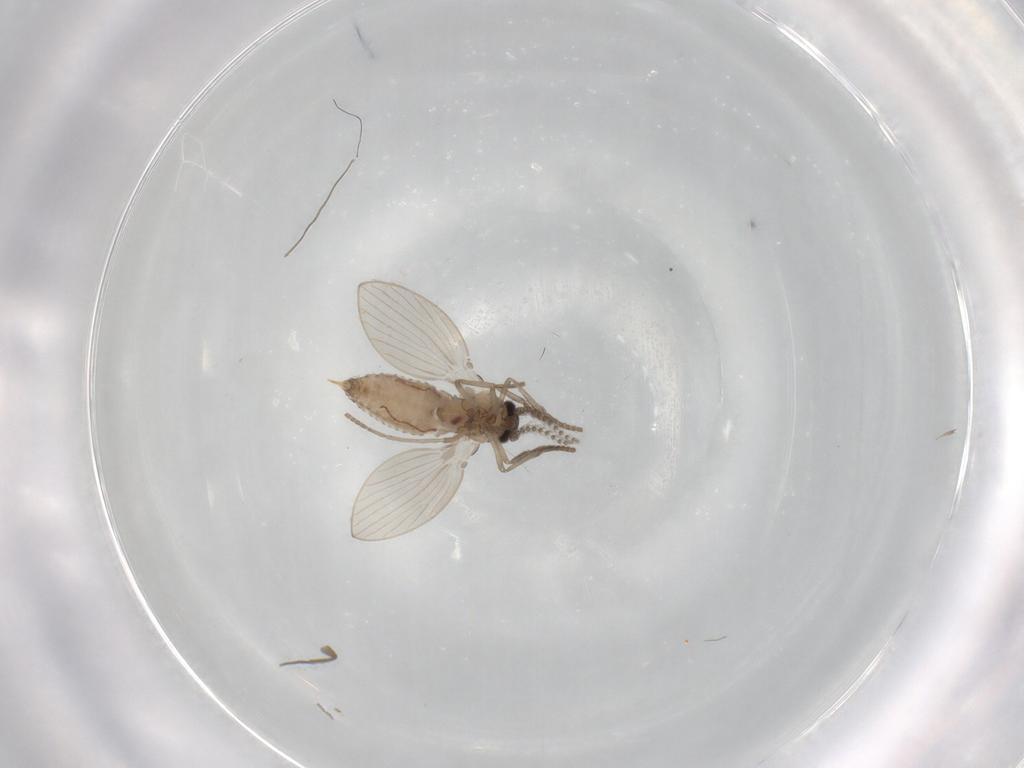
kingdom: Animalia
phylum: Arthropoda
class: Insecta
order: Diptera
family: Psychodidae
